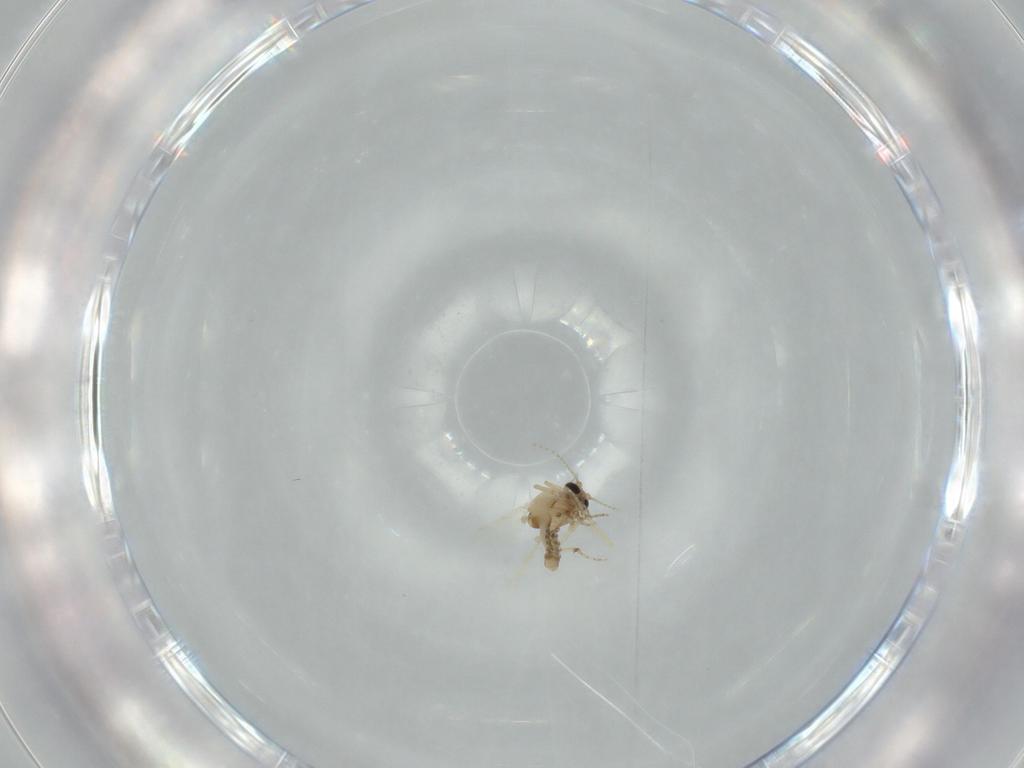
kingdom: Animalia
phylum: Arthropoda
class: Insecta
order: Diptera
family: Ceratopogonidae
